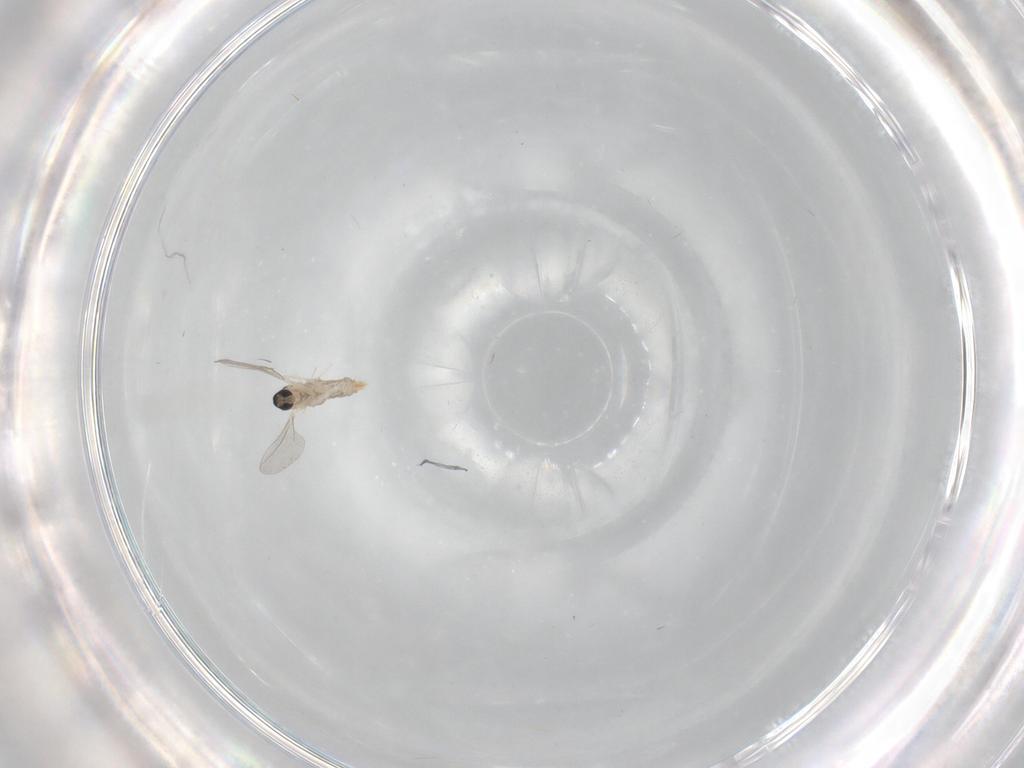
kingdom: Animalia
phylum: Arthropoda
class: Insecta
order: Diptera
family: Cecidomyiidae
